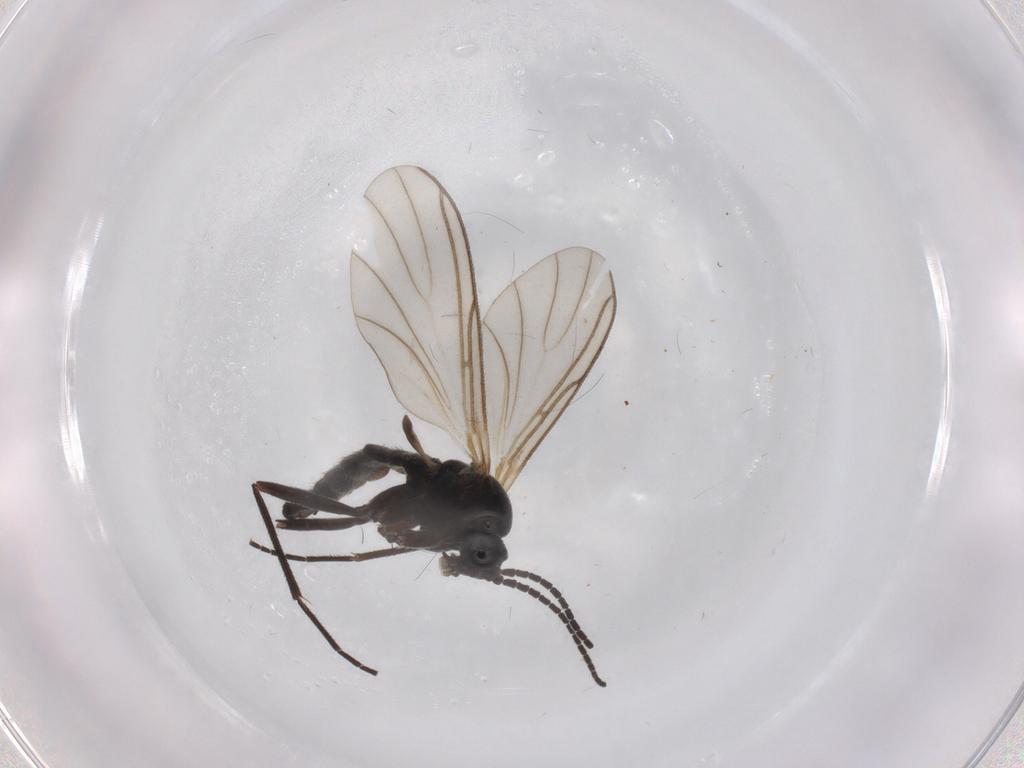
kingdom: Animalia
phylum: Arthropoda
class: Insecta
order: Diptera
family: Sciaridae
